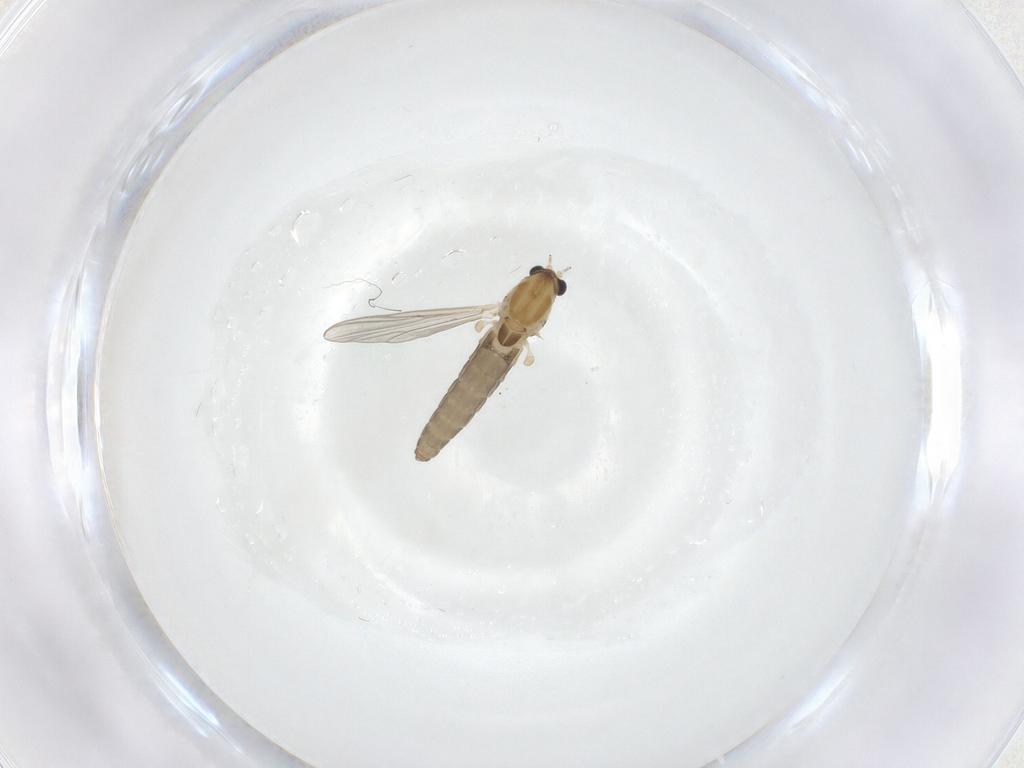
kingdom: Animalia
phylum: Arthropoda
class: Insecta
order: Diptera
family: Chironomidae
